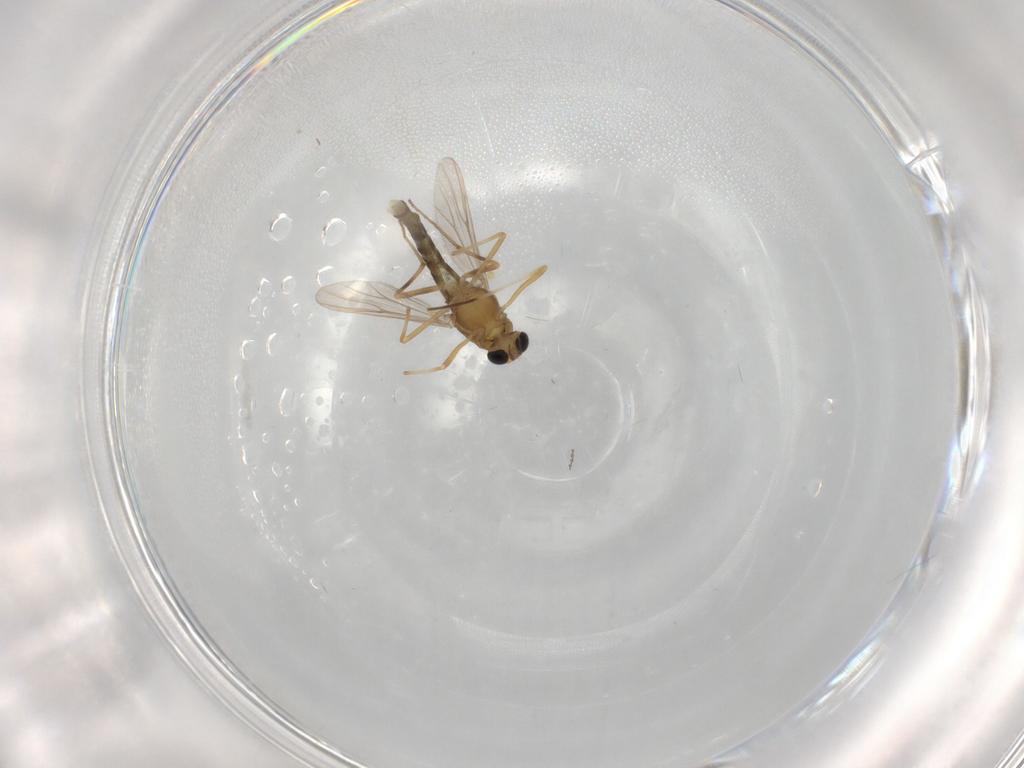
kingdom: Animalia
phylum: Arthropoda
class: Insecta
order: Diptera
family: Chironomidae
